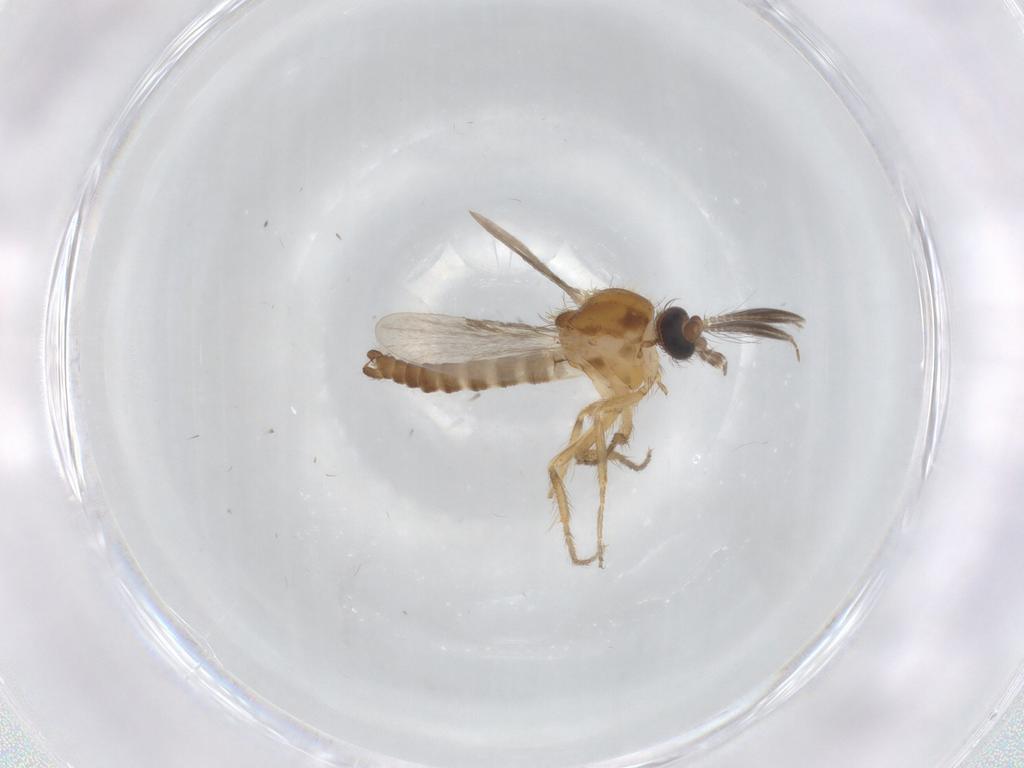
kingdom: Animalia
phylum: Arthropoda
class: Insecta
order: Diptera
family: Ceratopogonidae
